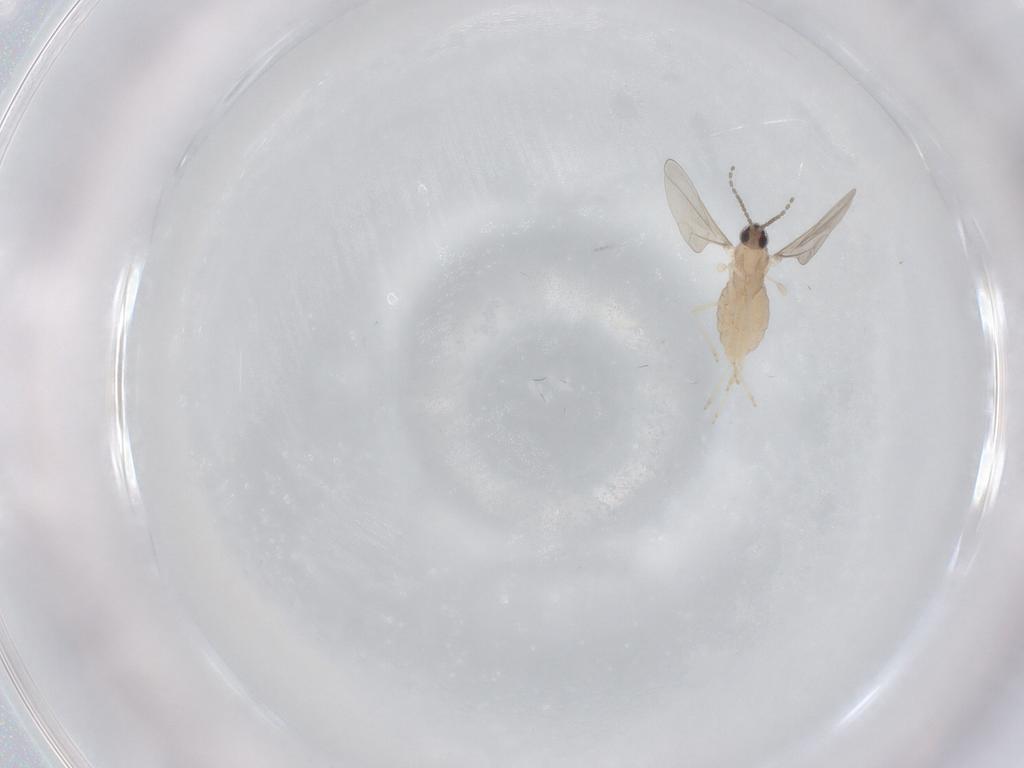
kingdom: Animalia
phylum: Arthropoda
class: Insecta
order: Diptera
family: Cecidomyiidae
